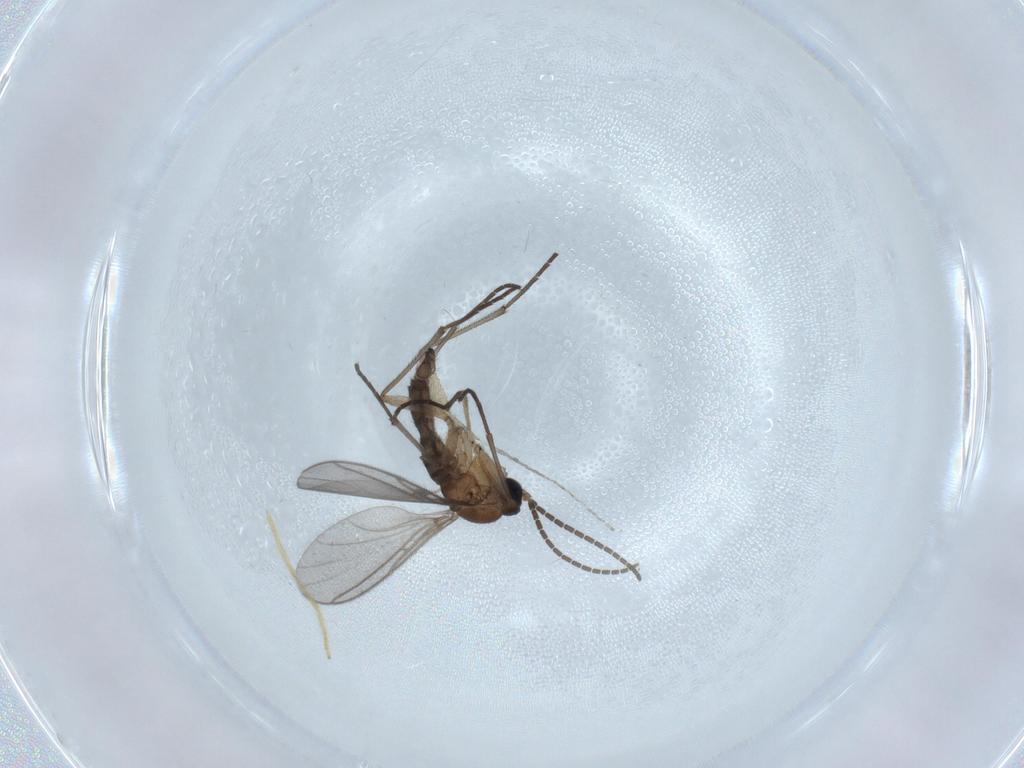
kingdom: Animalia
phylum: Arthropoda
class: Insecta
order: Diptera
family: Sciaridae
